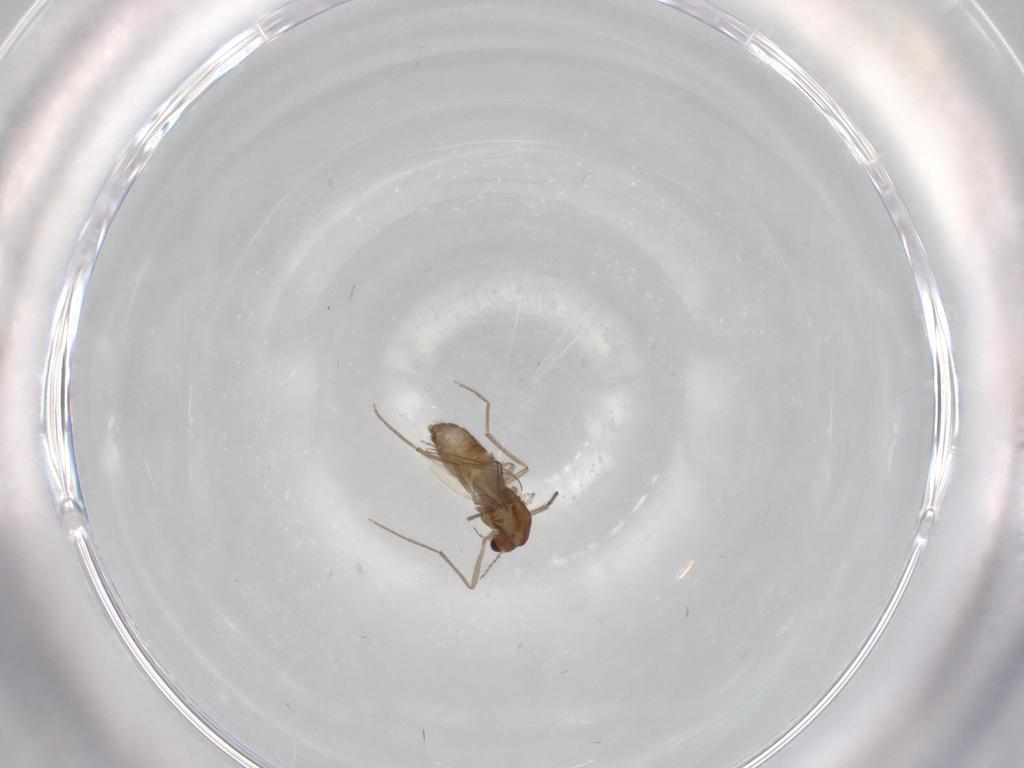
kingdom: Animalia
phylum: Arthropoda
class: Insecta
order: Diptera
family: Chironomidae
